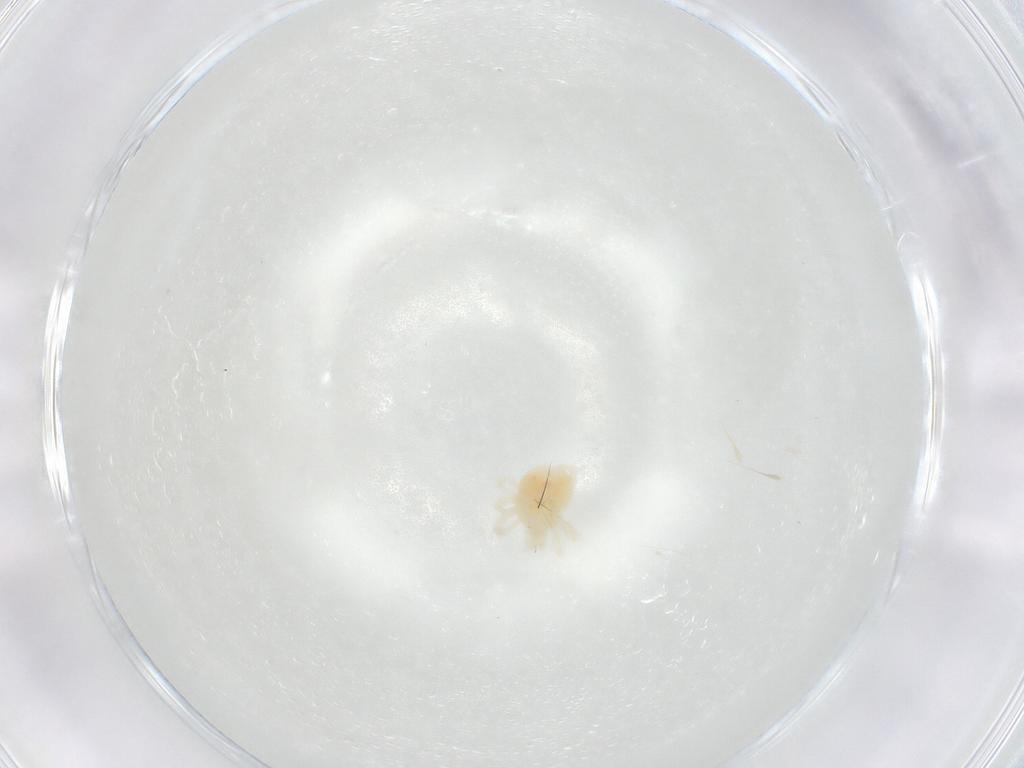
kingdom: Animalia
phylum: Arthropoda
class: Arachnida
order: Trombidiformes
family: Anystidae
